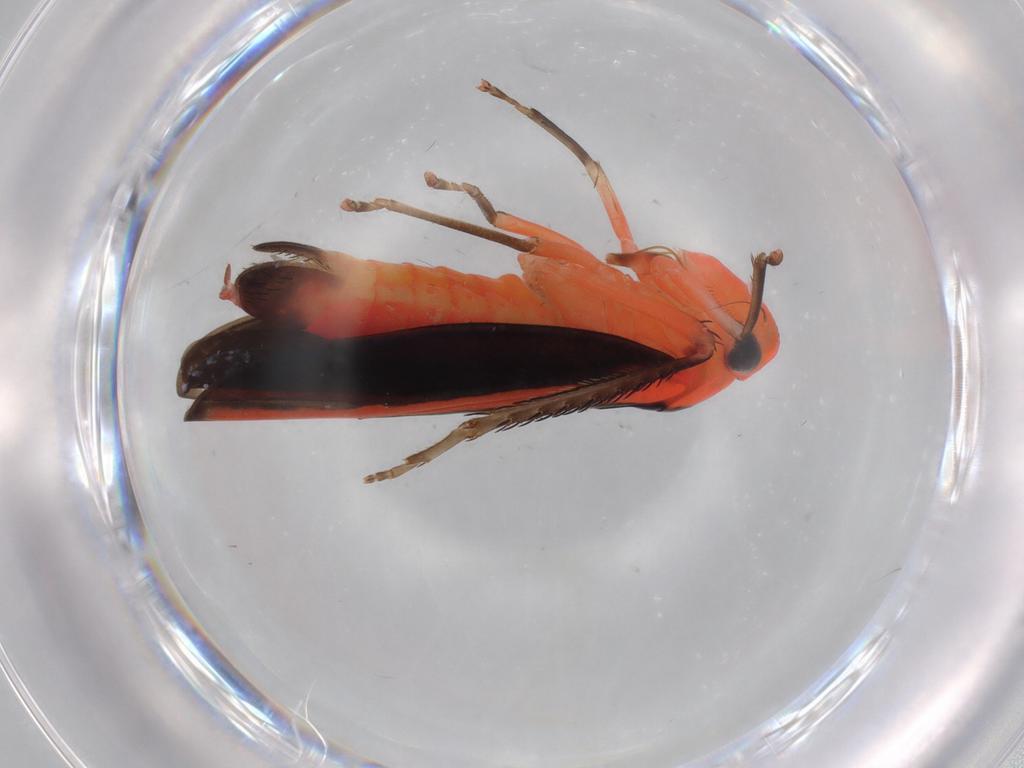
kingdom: Animalia
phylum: Arthropoda
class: Insecta
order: Hemiptera
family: Cicadellidae
